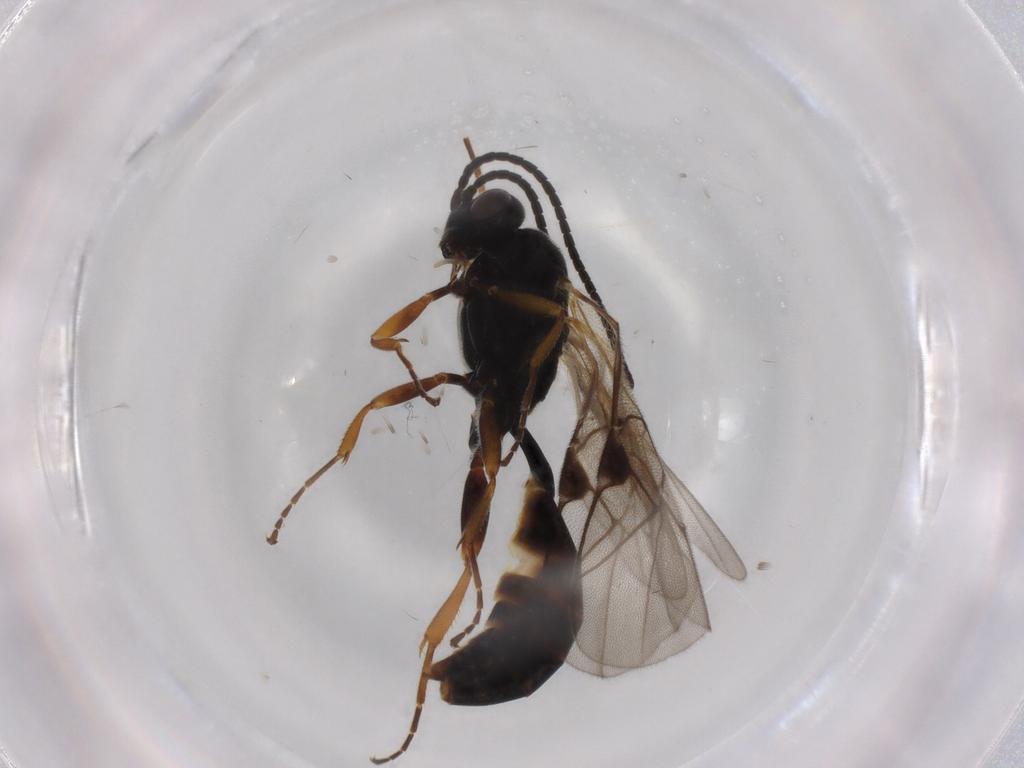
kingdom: Animalia
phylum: Arthropoda
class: Insecta
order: Hymenoptera
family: Ichneumonidae
